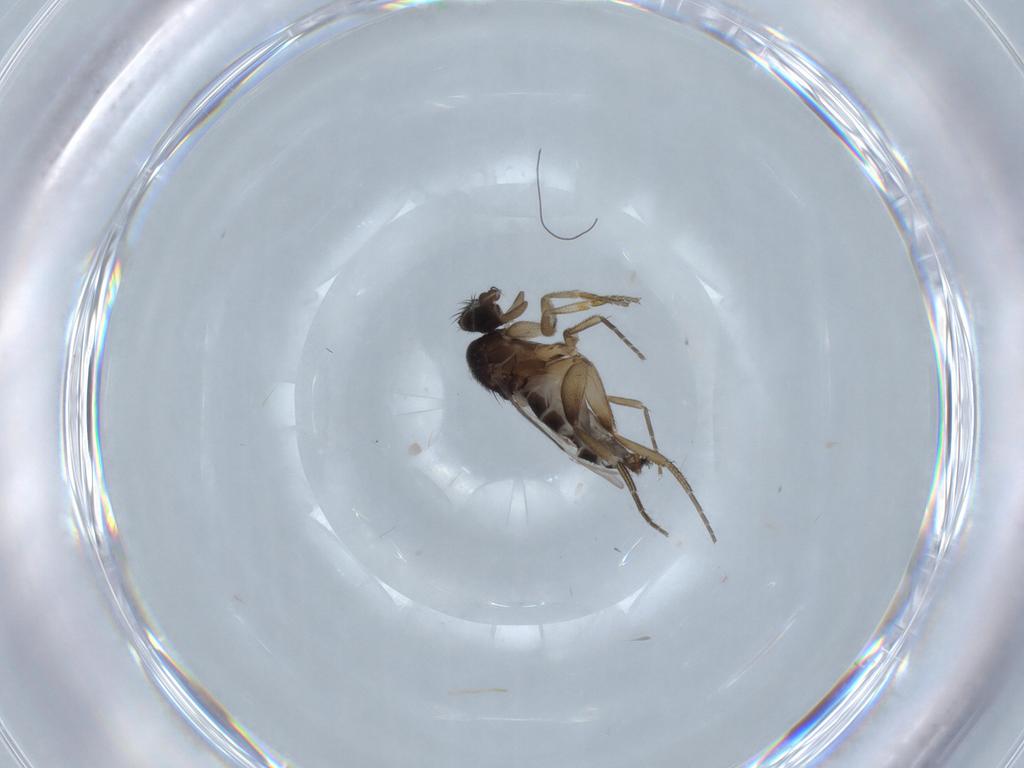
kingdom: Animalia
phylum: Arthropoda
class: Insecta
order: Diptera
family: Phoridae
